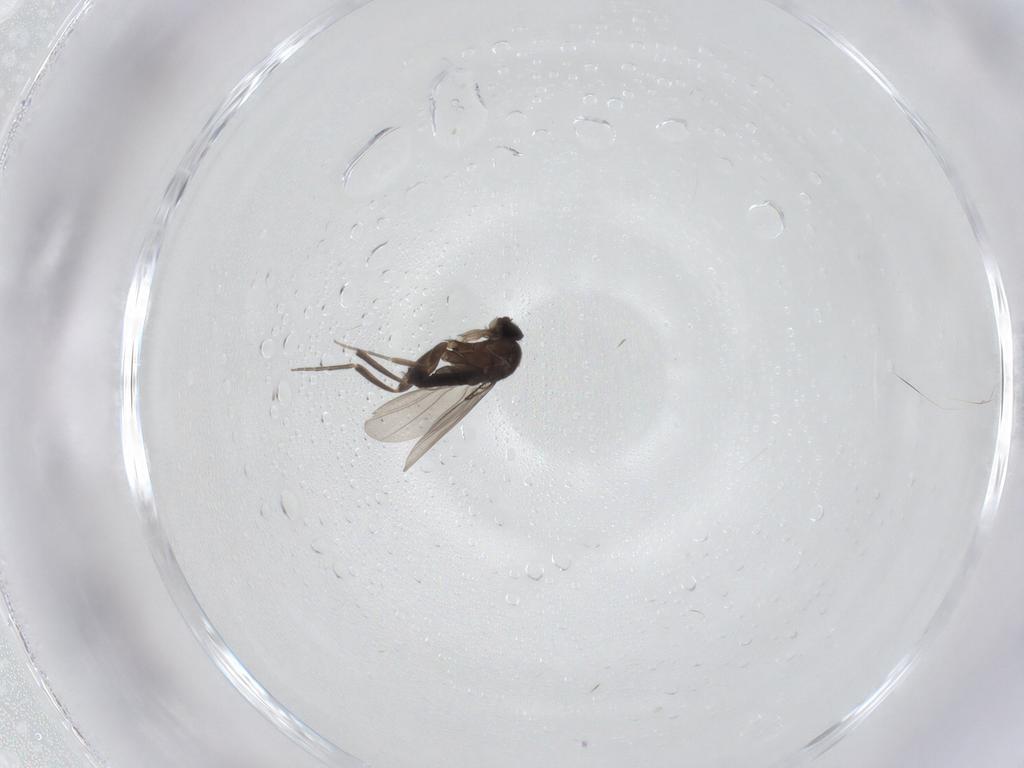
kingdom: Animalia
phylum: Arthropoda
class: Insecta
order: Diptera
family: Phoridae
